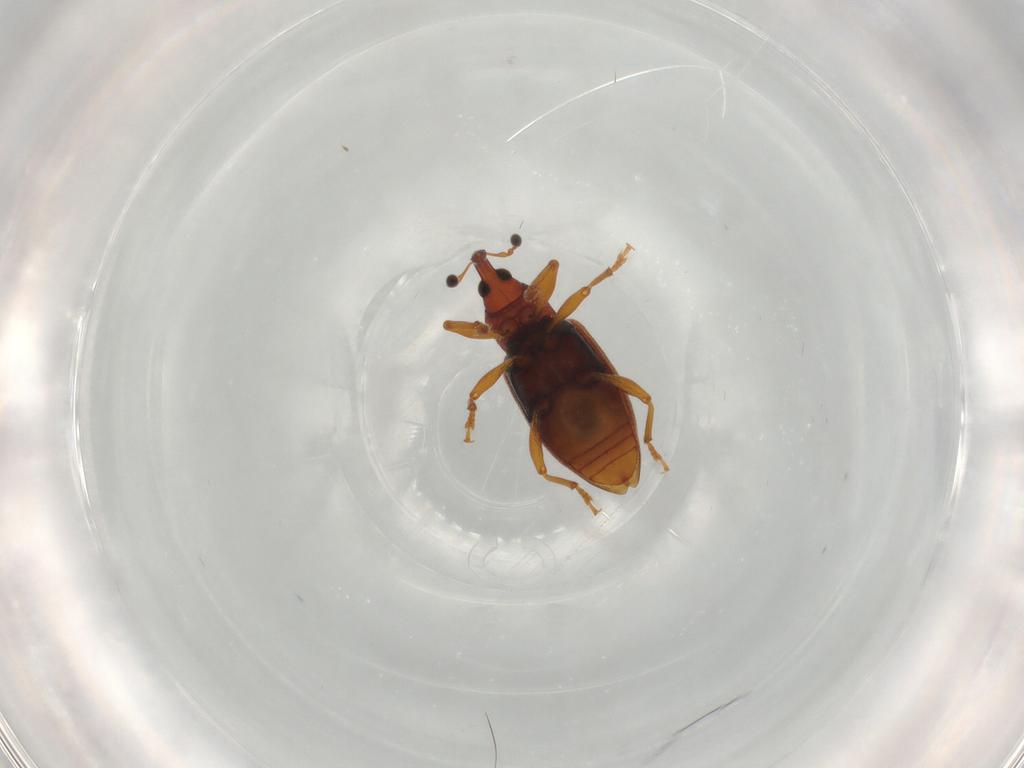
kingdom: Animalia
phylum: Arthropoda
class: Insecta
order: Coleoptera
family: Curculionidae
